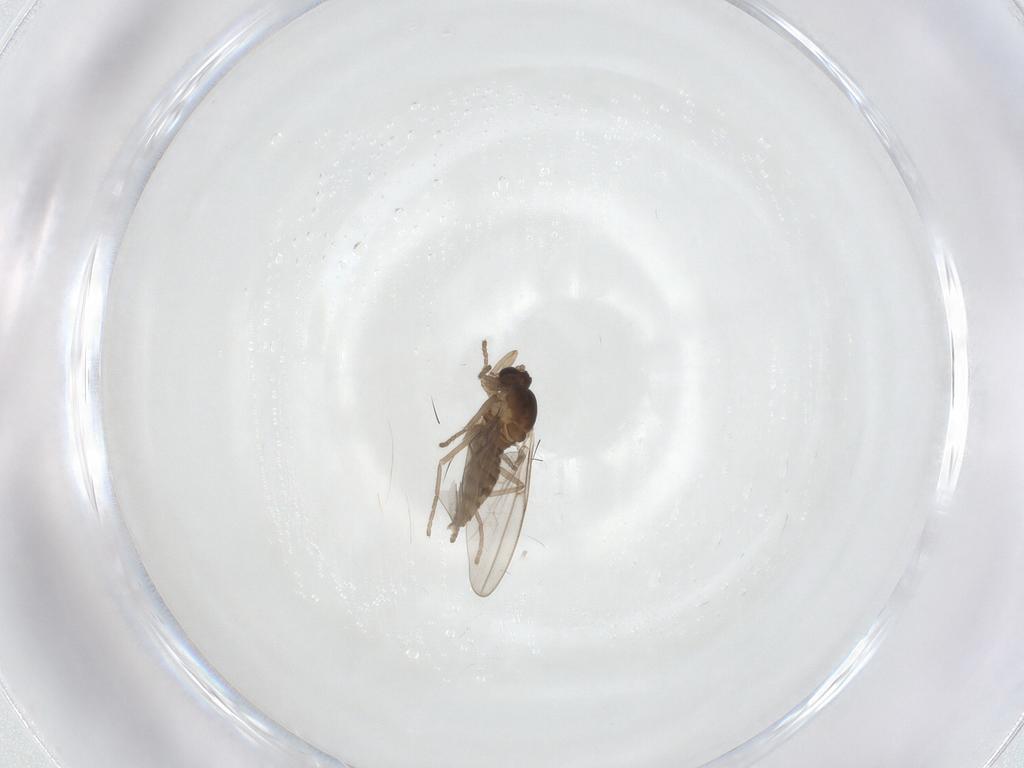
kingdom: Animalia
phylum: Arthropoda
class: Insecta
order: Diptera
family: Cecidomyiidae
